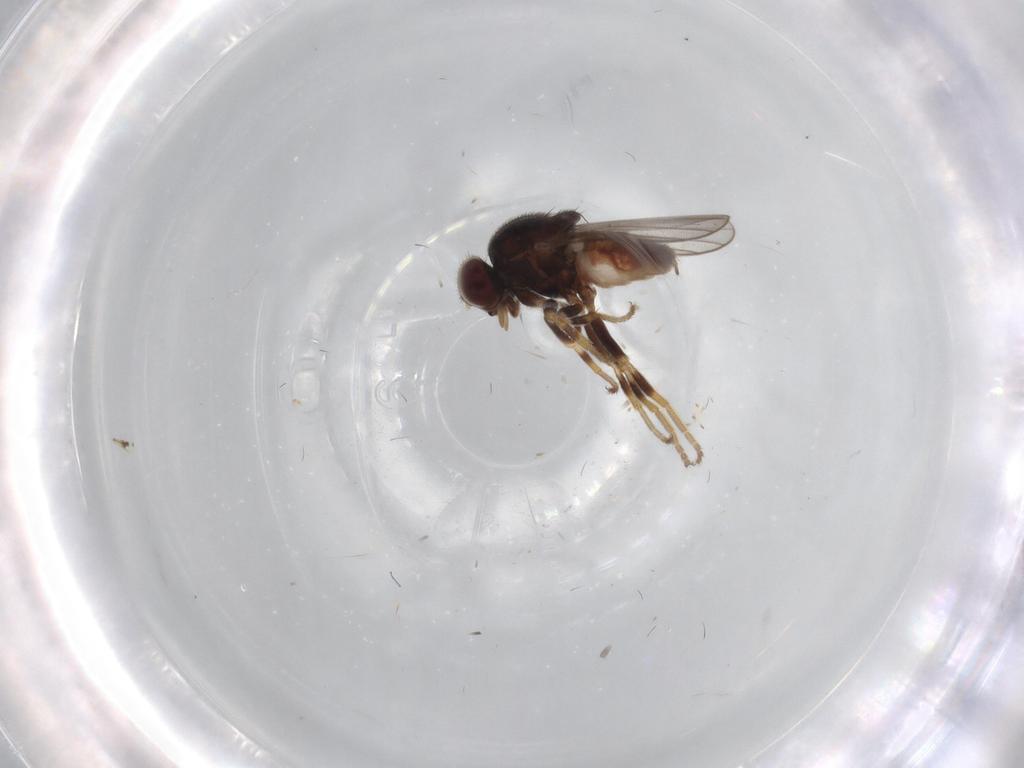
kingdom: Animalia
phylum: Arthropoda
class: Insecta
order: Diptera
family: Chloropidae
